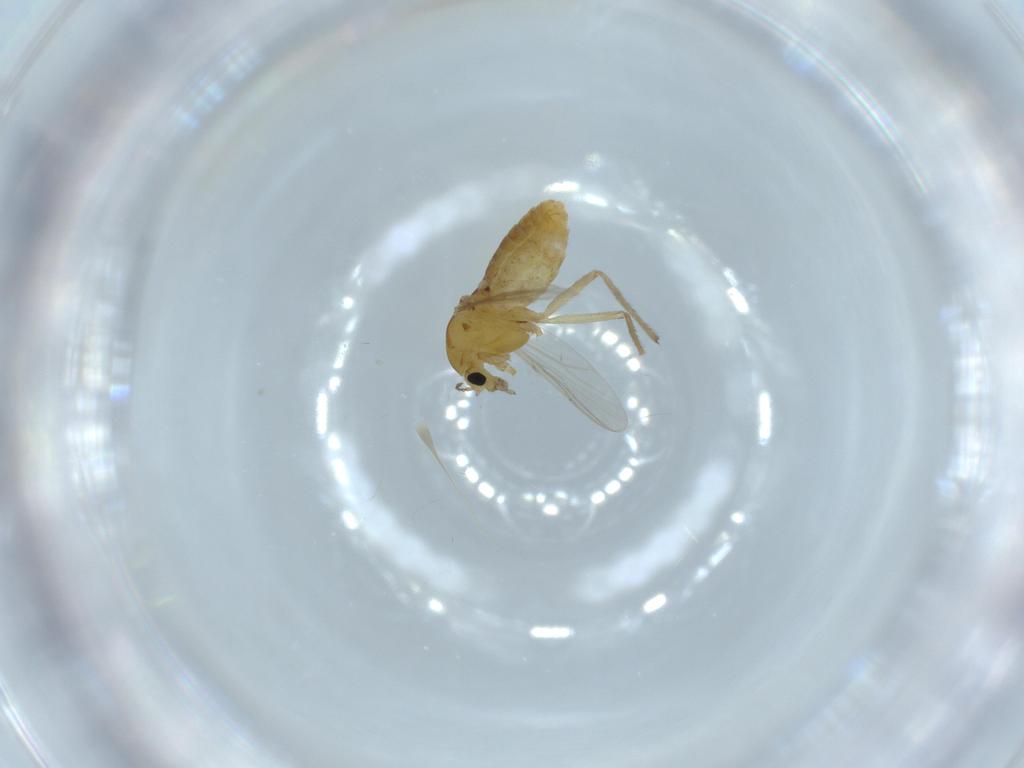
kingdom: Animalia
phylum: Arthropoda
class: Insecta
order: Diptera
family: Chironomidae
